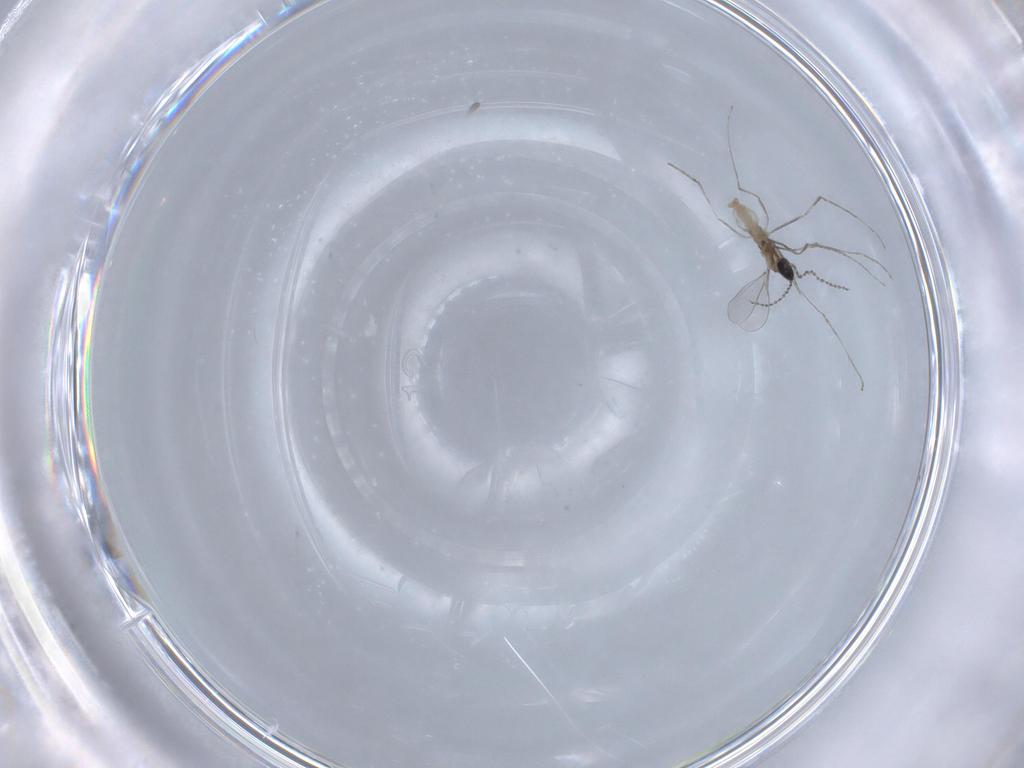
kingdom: Animalia
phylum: Arthropoda
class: Insecta
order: Diptera
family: Cecidomyiidae
